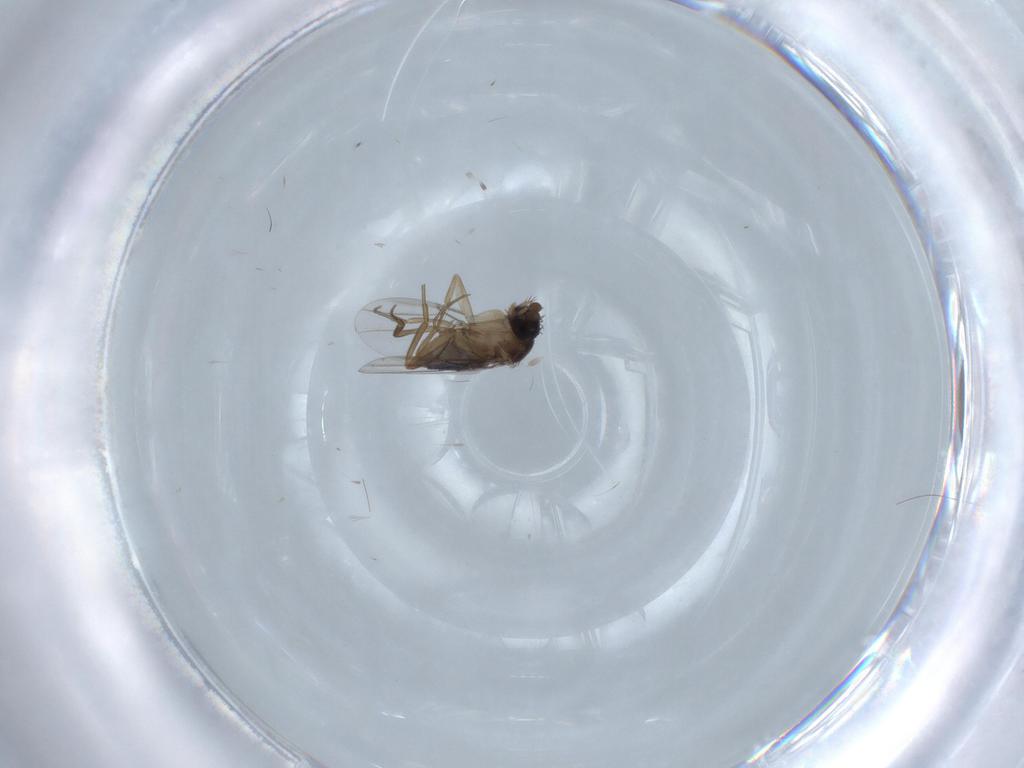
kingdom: Animalia
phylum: Arthropoda
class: Insecta
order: Diptera
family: Phoridae
